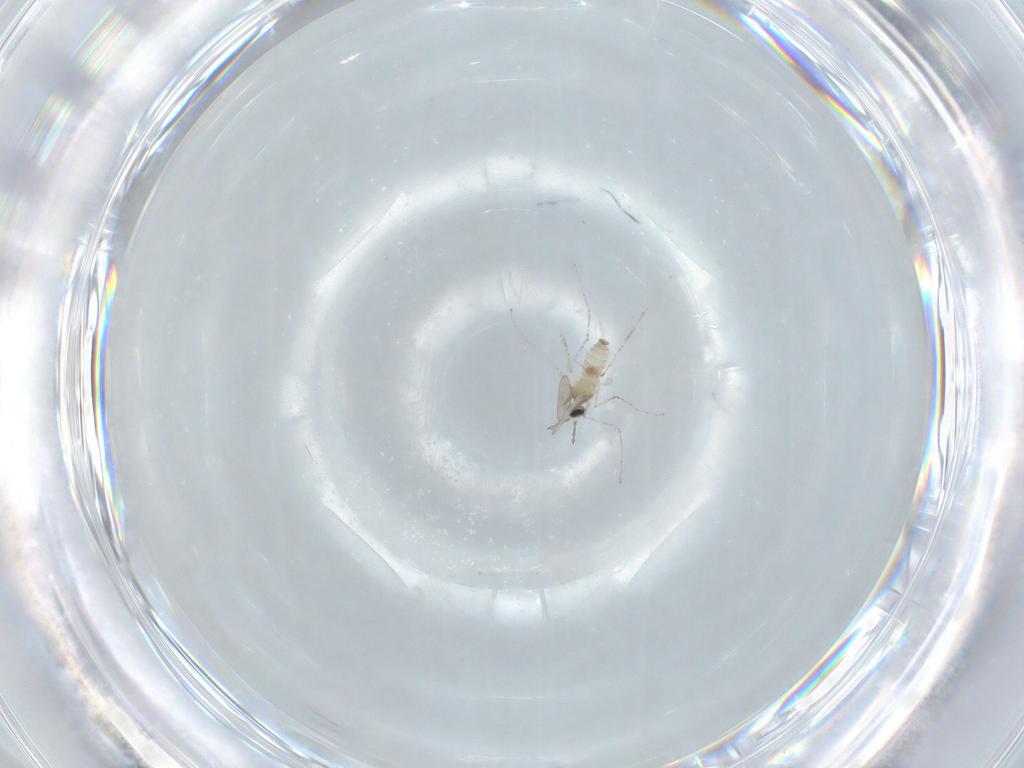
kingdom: Animalia
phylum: Arthropoda
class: Insecta
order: Diptera
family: Cecidomyiidae
